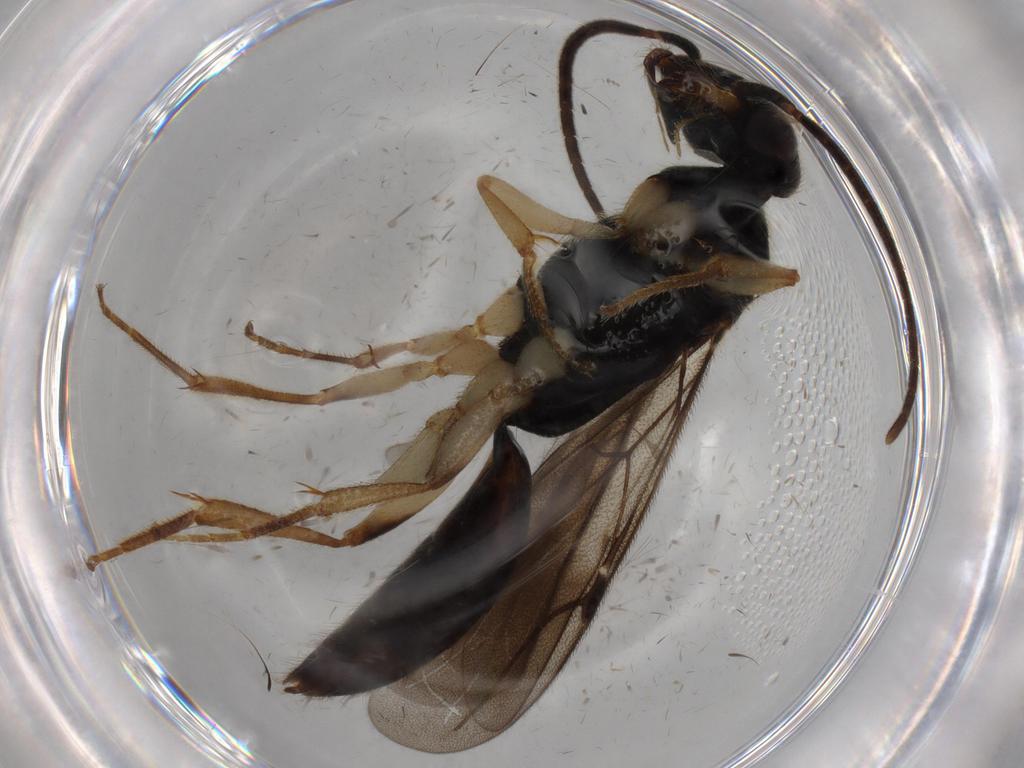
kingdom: Animalia
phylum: Arthropoda
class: Insecta
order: Hymenoptera
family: Bethylidae
